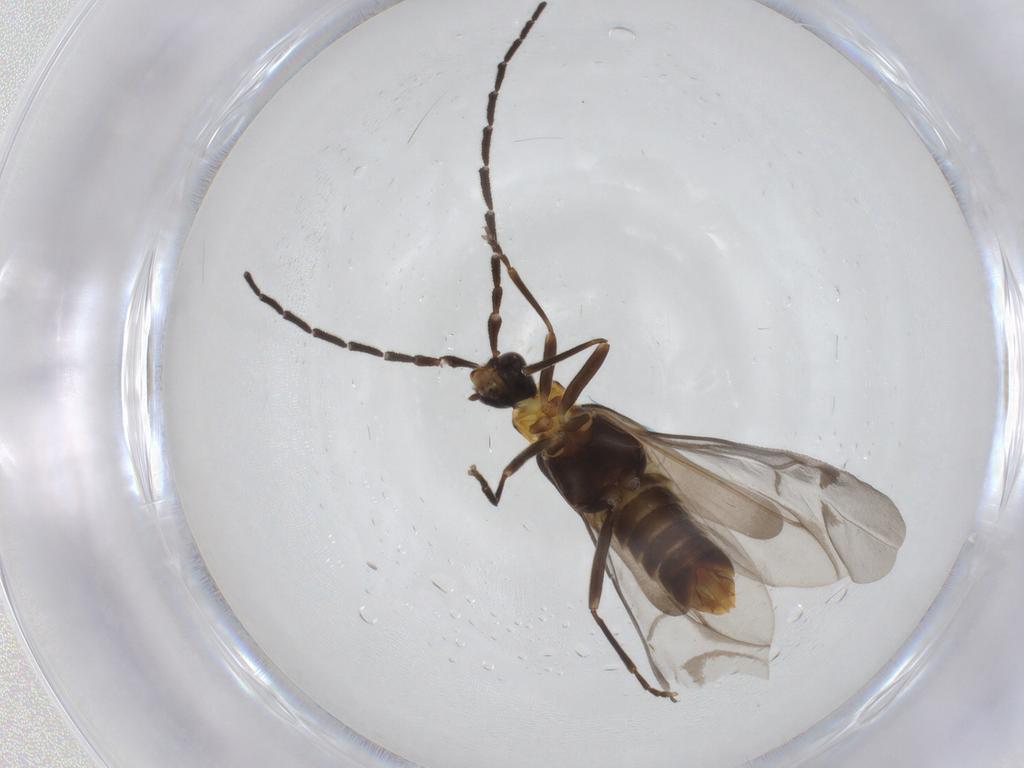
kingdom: Animalia
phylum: Arthropoda
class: Insecta
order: Coleoptera
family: Cantharidae
